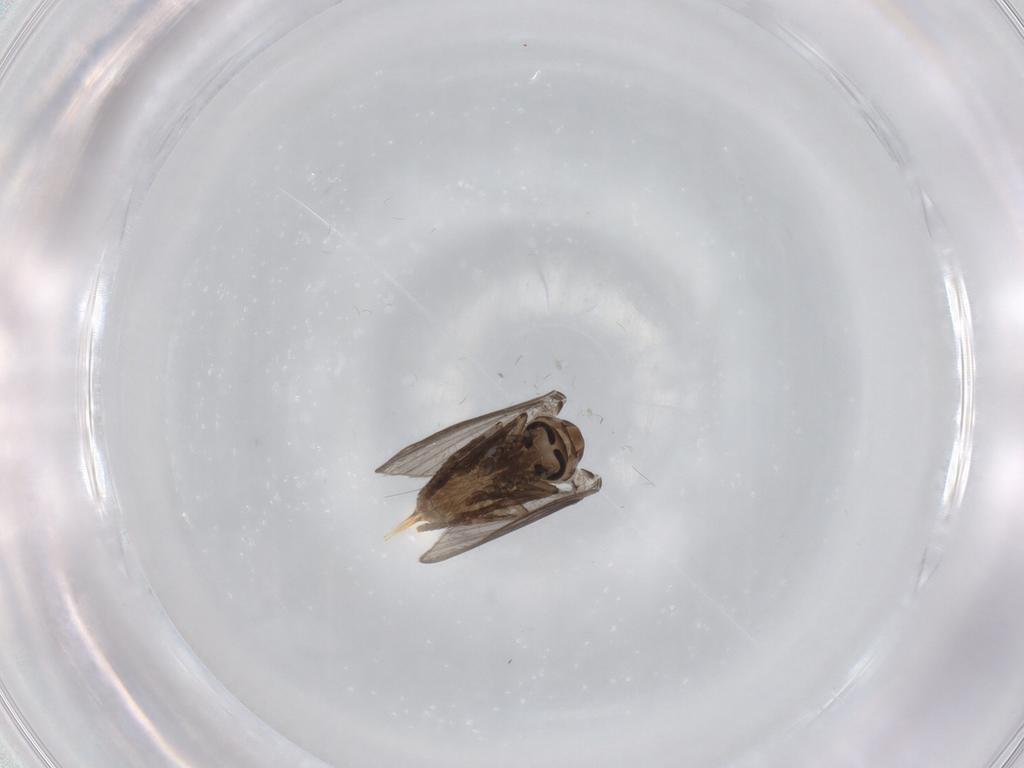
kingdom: Animalia
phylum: Arthropoda
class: Insecta
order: Diptera
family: Psychodidae
